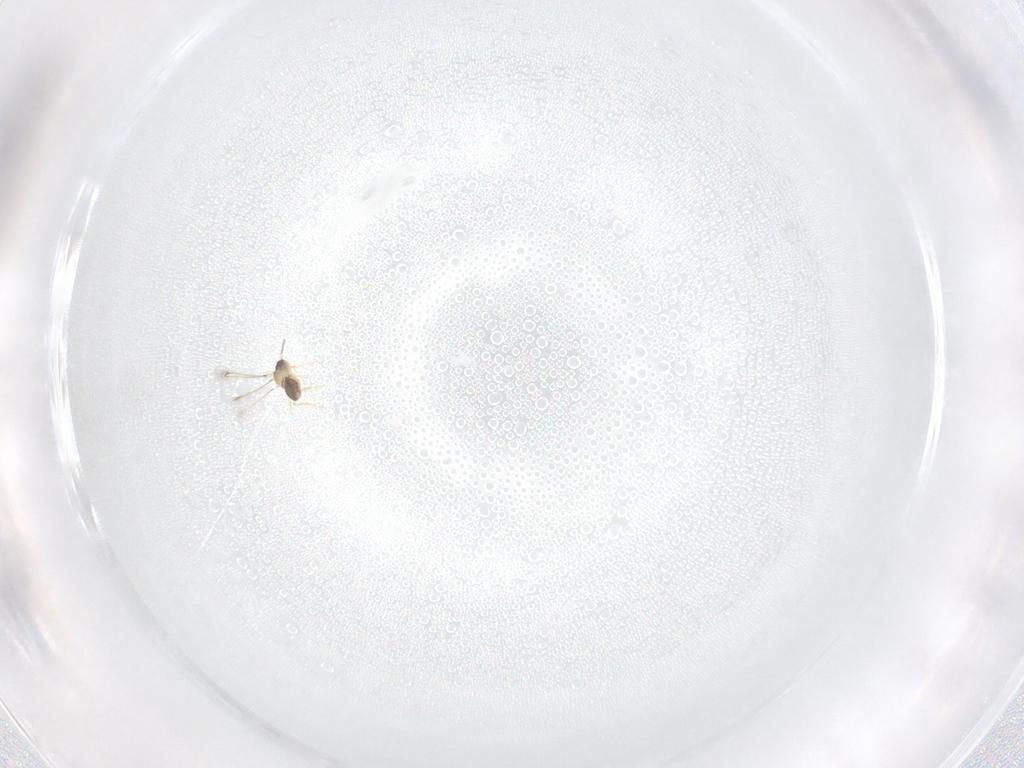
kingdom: Animalia
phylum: Arthropoda
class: Insecta
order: Hymenoptera
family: Mymaridae
